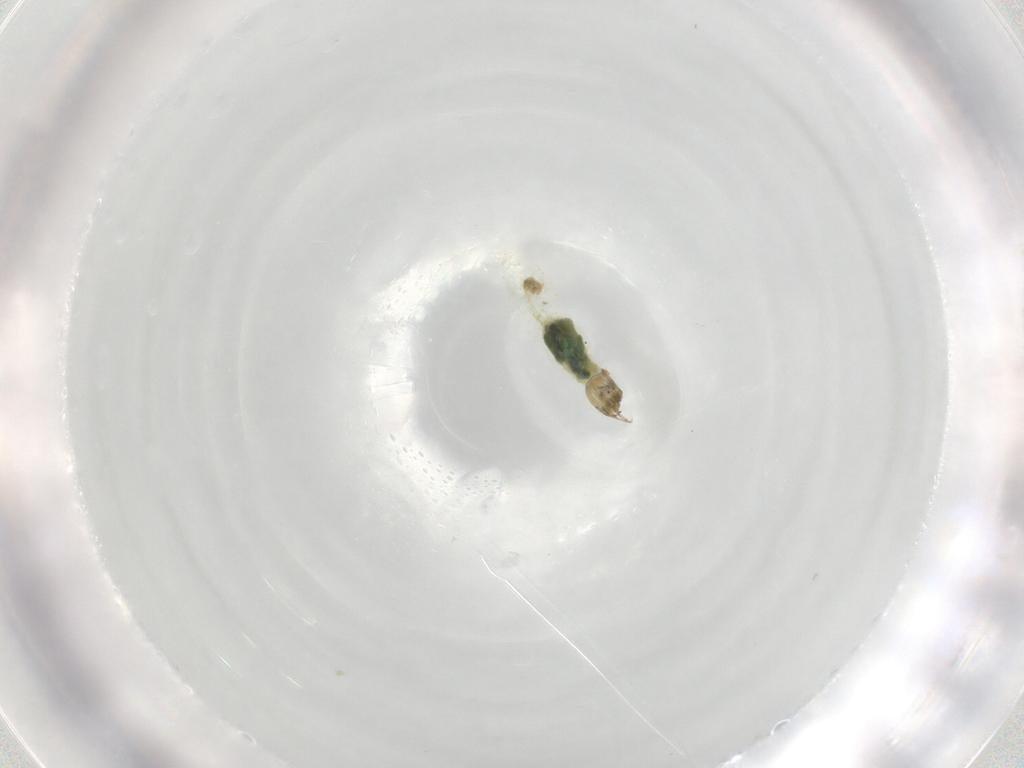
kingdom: Animalia
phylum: Arthropoda
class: Insecta
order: Diptera
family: Chironomidae
